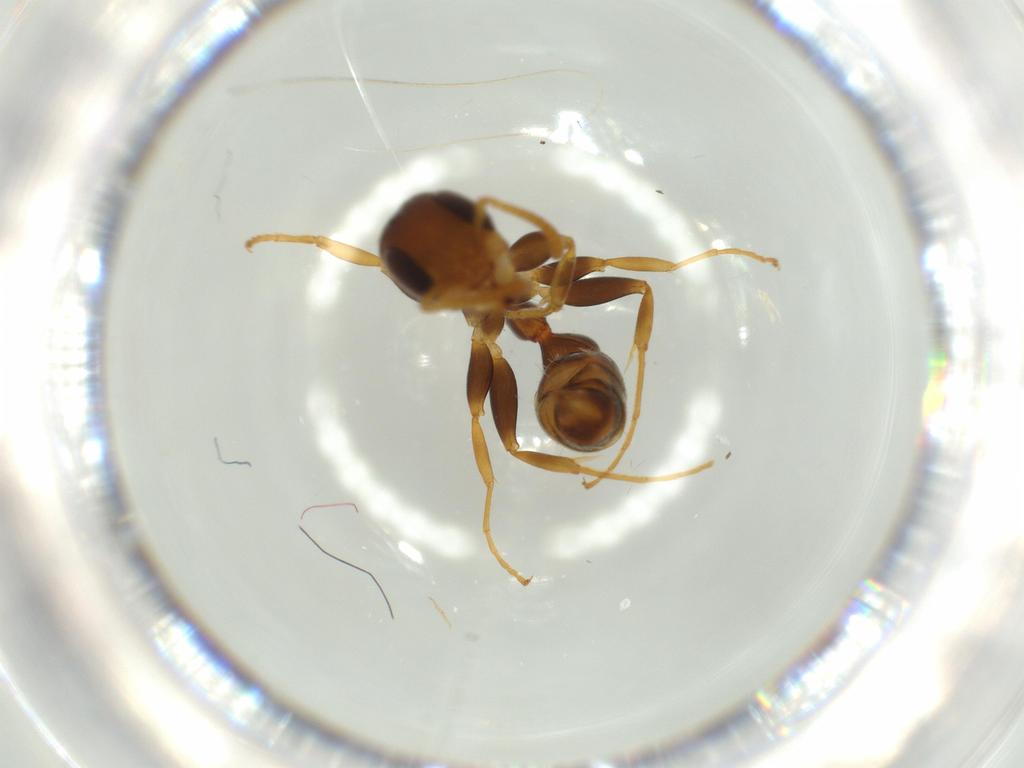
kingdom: Animalia
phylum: Arthropoda
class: Insecta
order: Hymenoptera
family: Formicidae
